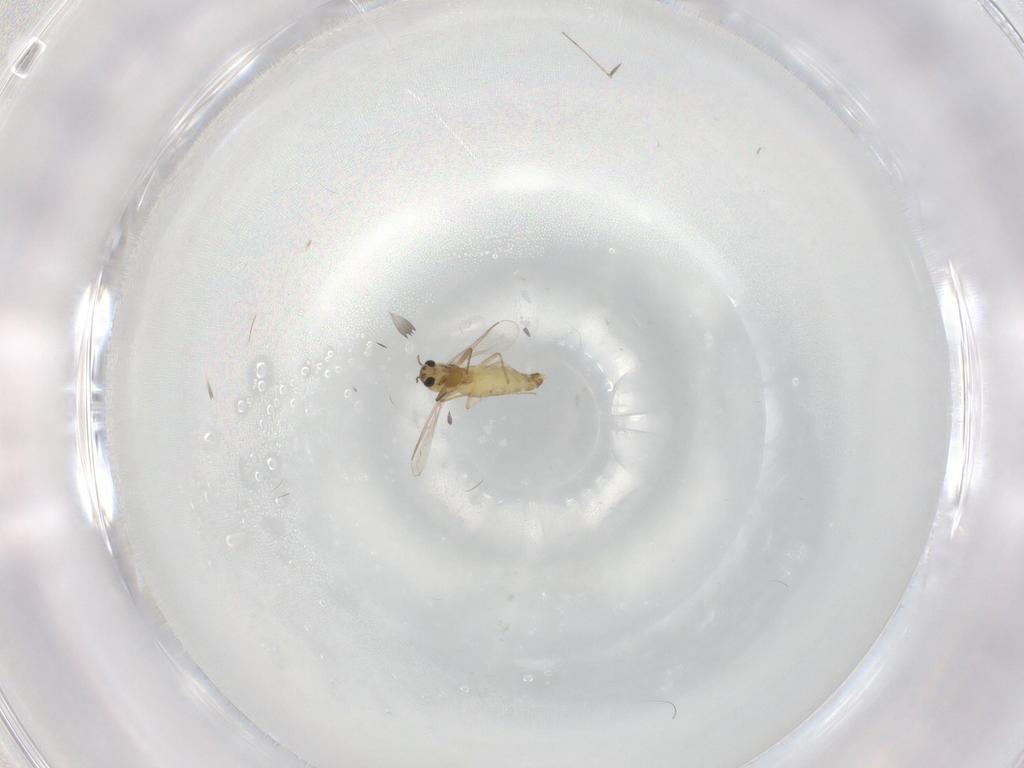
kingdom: Animalia
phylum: Arthropoda
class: Insecta
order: Diptera
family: Chironomidae
